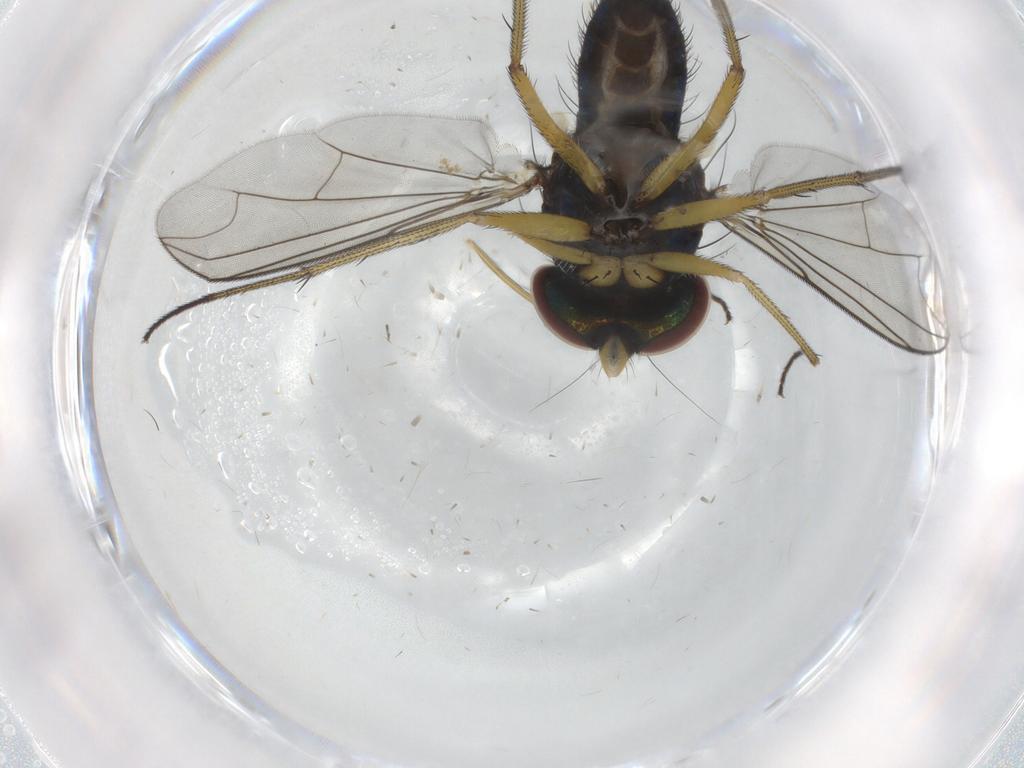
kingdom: Animalia
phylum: Arthropoda
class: Insecta
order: Diptera
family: Dolichopodidae
